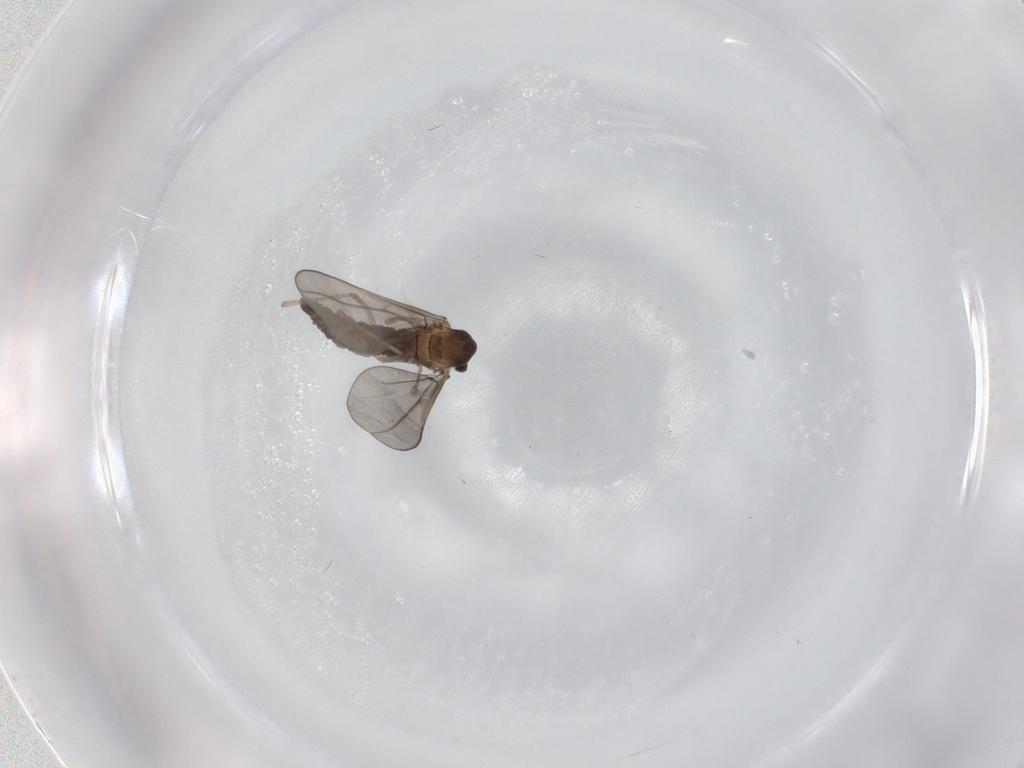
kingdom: Animalia
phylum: Arthropoda
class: Insecta
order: Diptera
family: Cecidomyiidae
